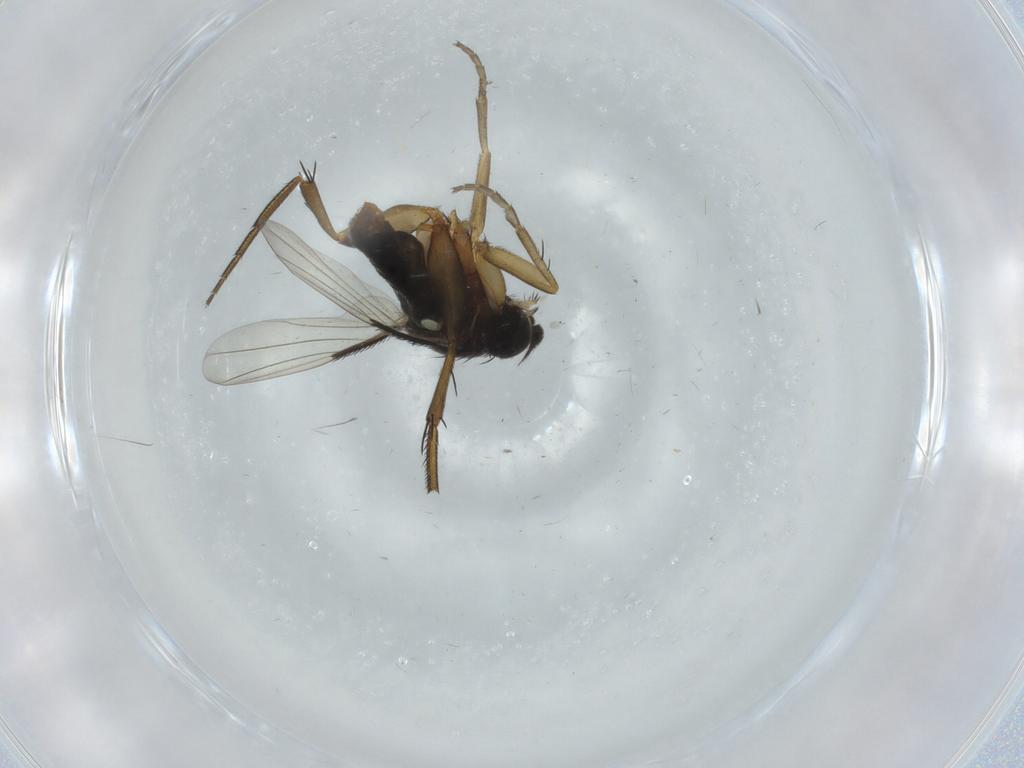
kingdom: Animalia
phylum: Arthropoda
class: Insecta
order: Diptera
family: Phoridae
